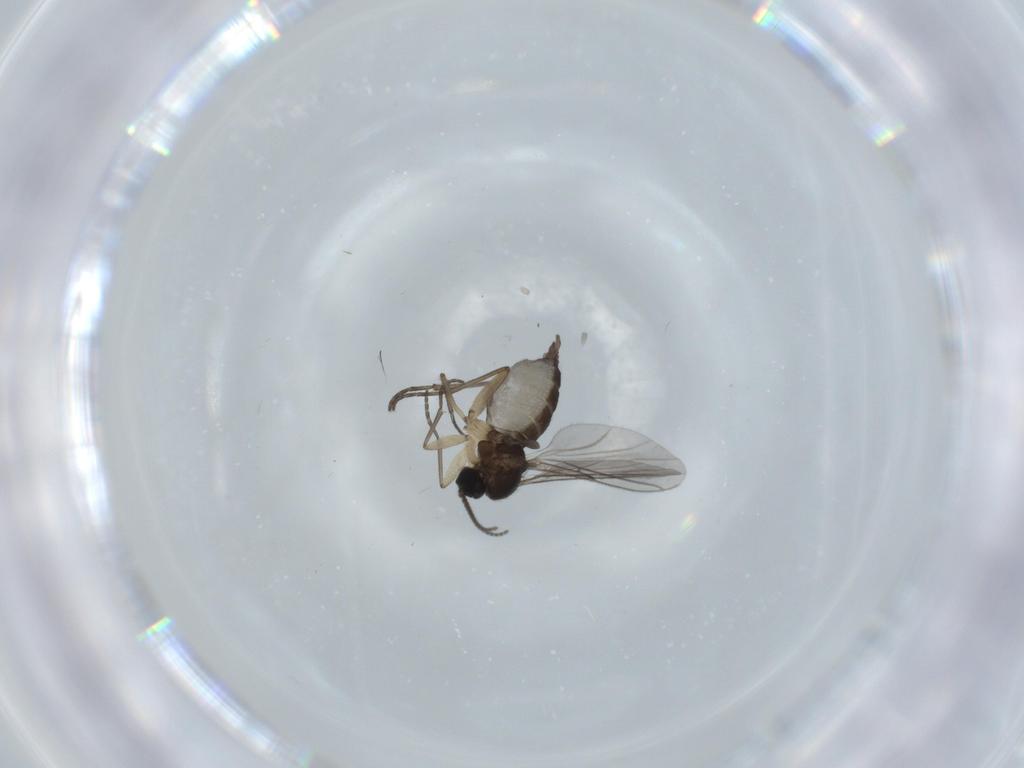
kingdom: Animalia
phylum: Arthropoda
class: Insecta
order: Diptera
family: Sciaridae
